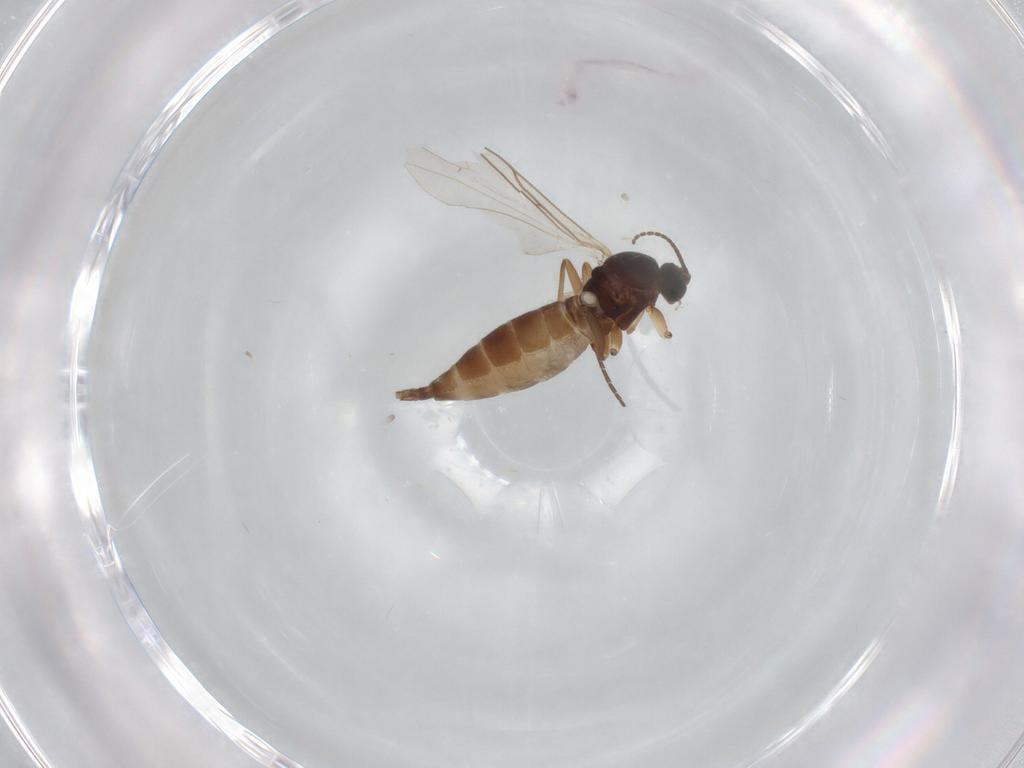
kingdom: Animalia
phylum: Arthropoda
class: Insecta
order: Diptera
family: Sciaridae
